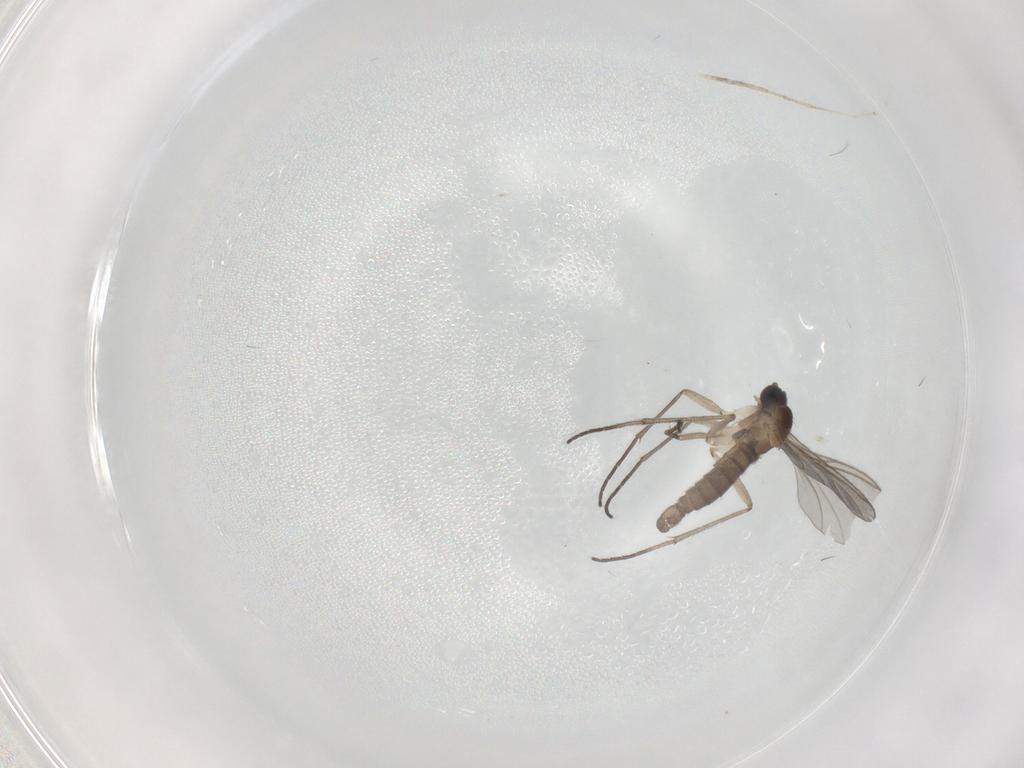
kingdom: Animalia
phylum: Arthropoda
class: Insecta
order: Diptera
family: Sciaridae
